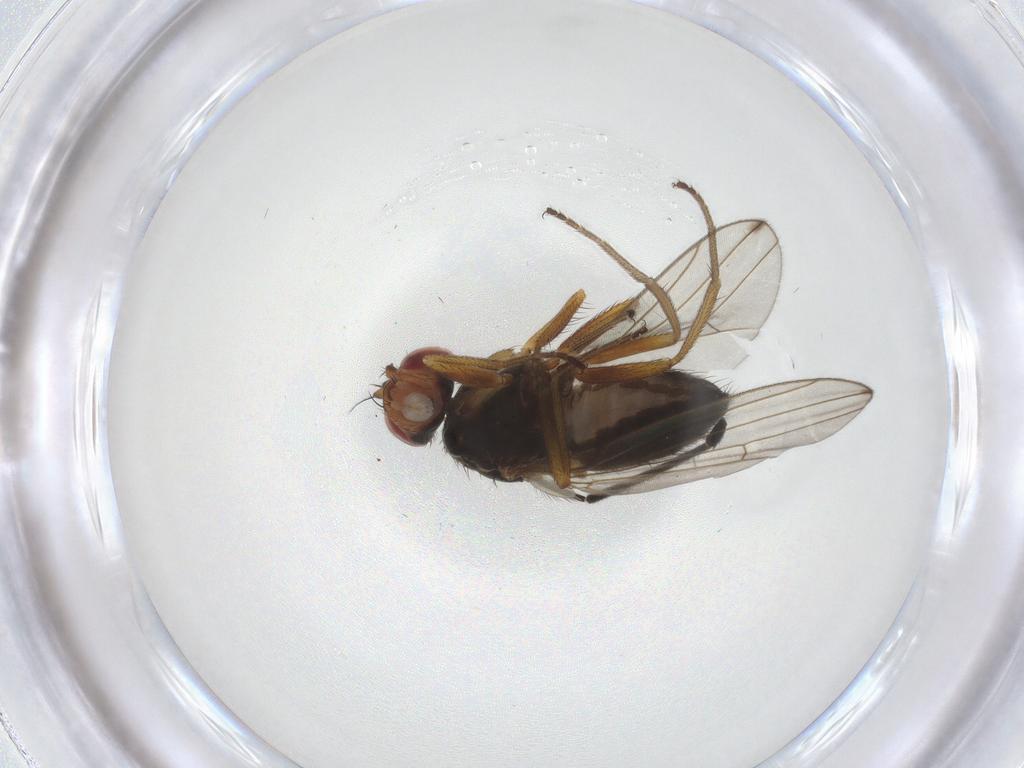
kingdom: Animalia
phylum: Arthropoda
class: Insecta
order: Diptera
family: Drosophilidae
